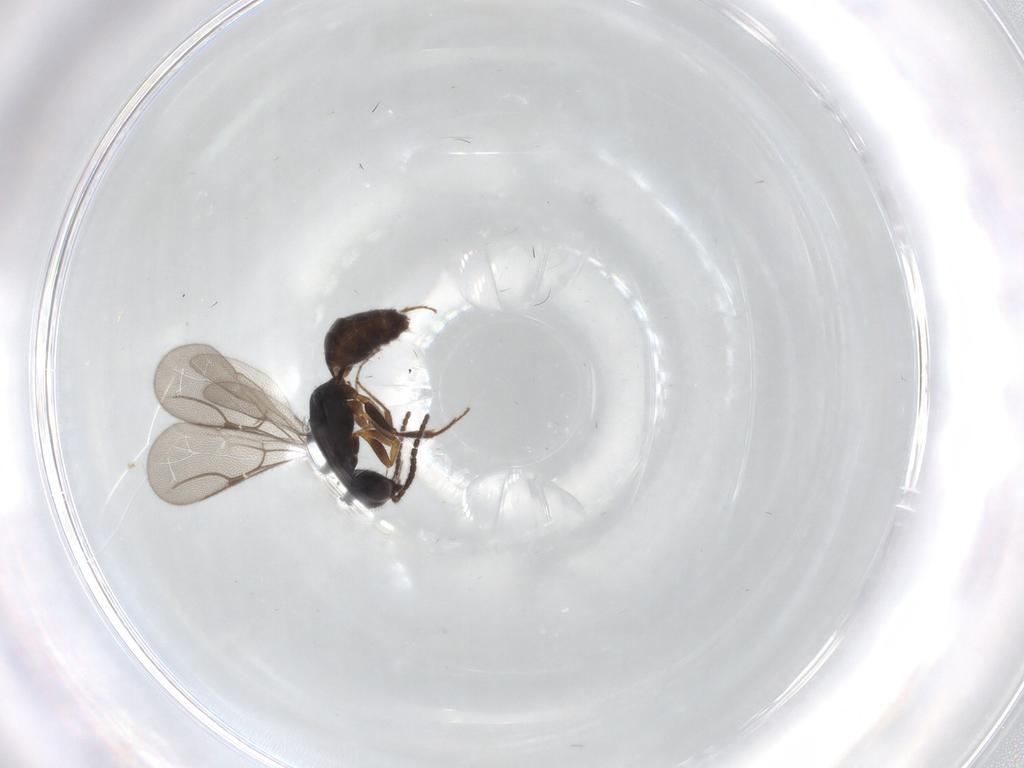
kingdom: Animalia
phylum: Arthropoda
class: Insecta
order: Hymenoptera
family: Bethylidae
